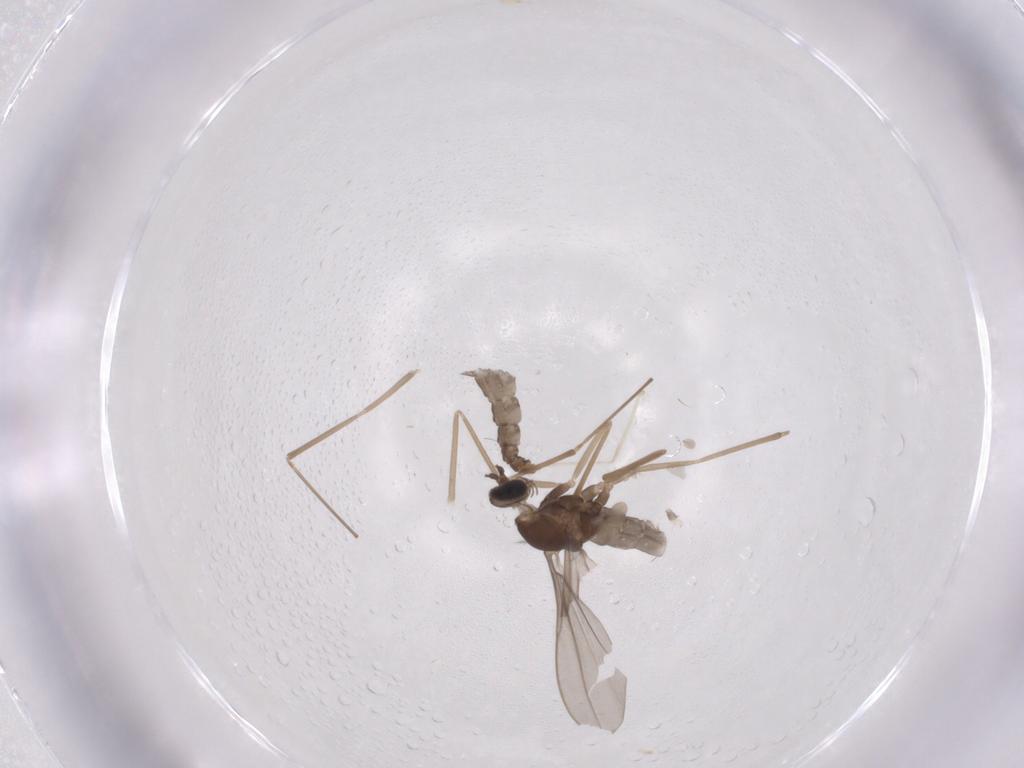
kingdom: Animalia
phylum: Arthropoda
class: Insecta
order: Diptera
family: Cecidomyiidae
